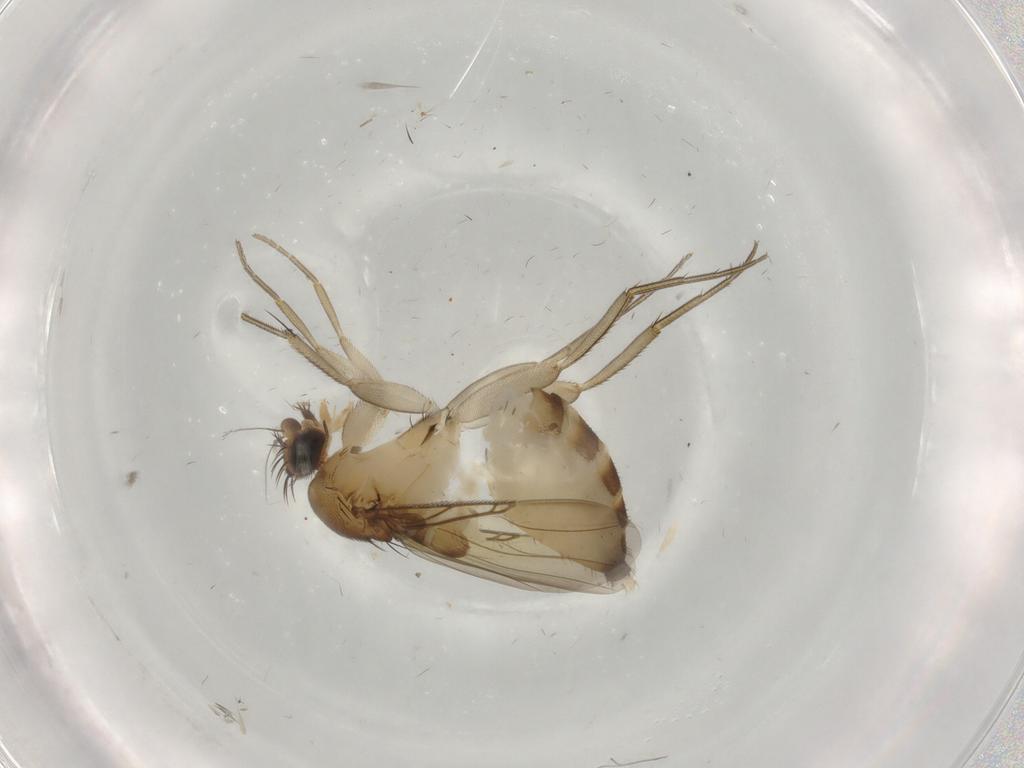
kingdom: Animalia
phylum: Arthropoda
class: Insecta
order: Diptera
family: Phoridae
